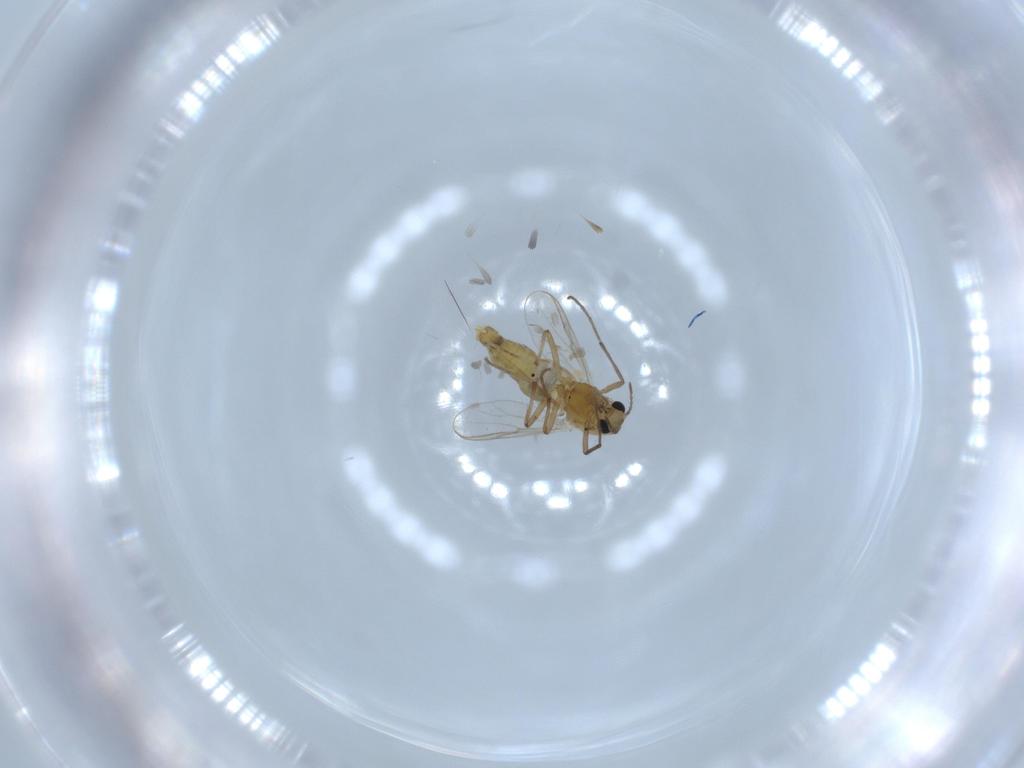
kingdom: Animalia
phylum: Arthropoda
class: Insecta
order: Diptera
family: Chironomidae
